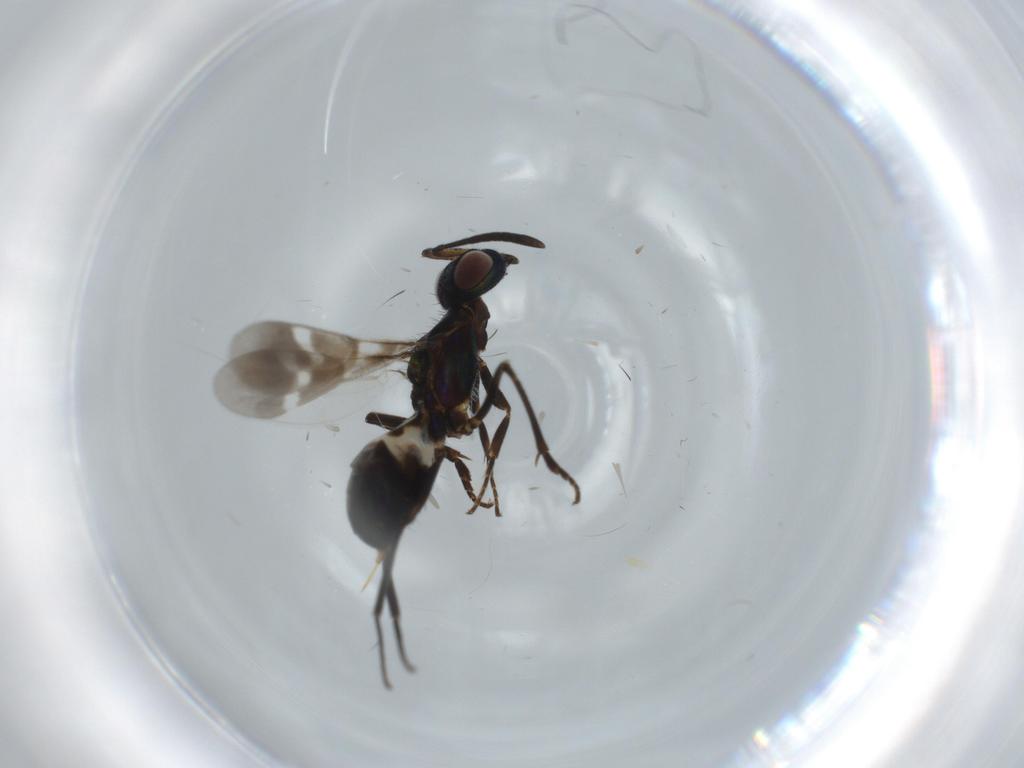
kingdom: Animalia
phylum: Arthropoda
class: Insecta
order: Hymenoptera
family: Vespidae
